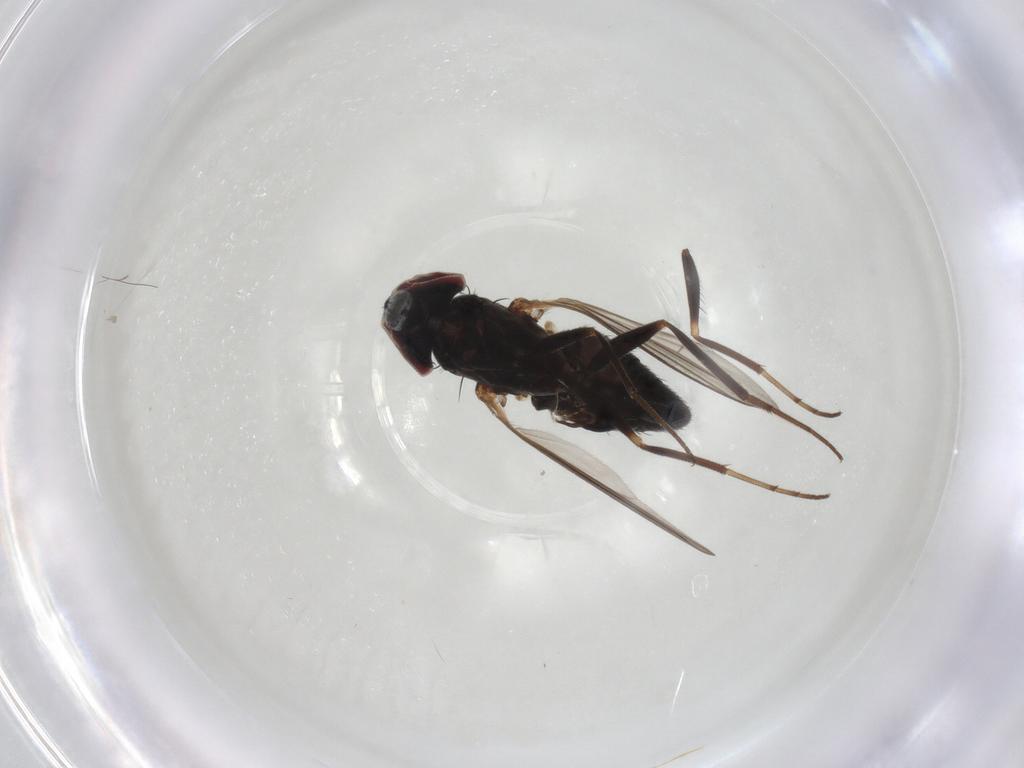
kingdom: Animalia
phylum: Arthropoda
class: Insecta
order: Diptera
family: Dolichopodidae
